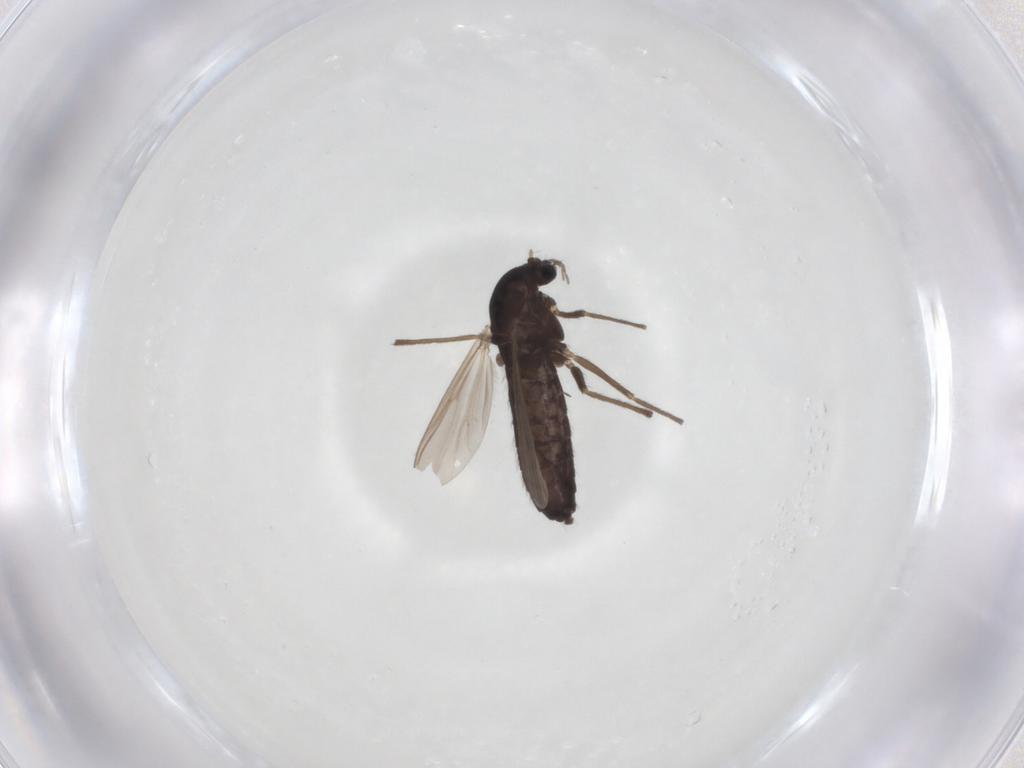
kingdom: Animalia
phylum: Arthropoda
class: Insecta
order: Diptera
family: Chironomidae
